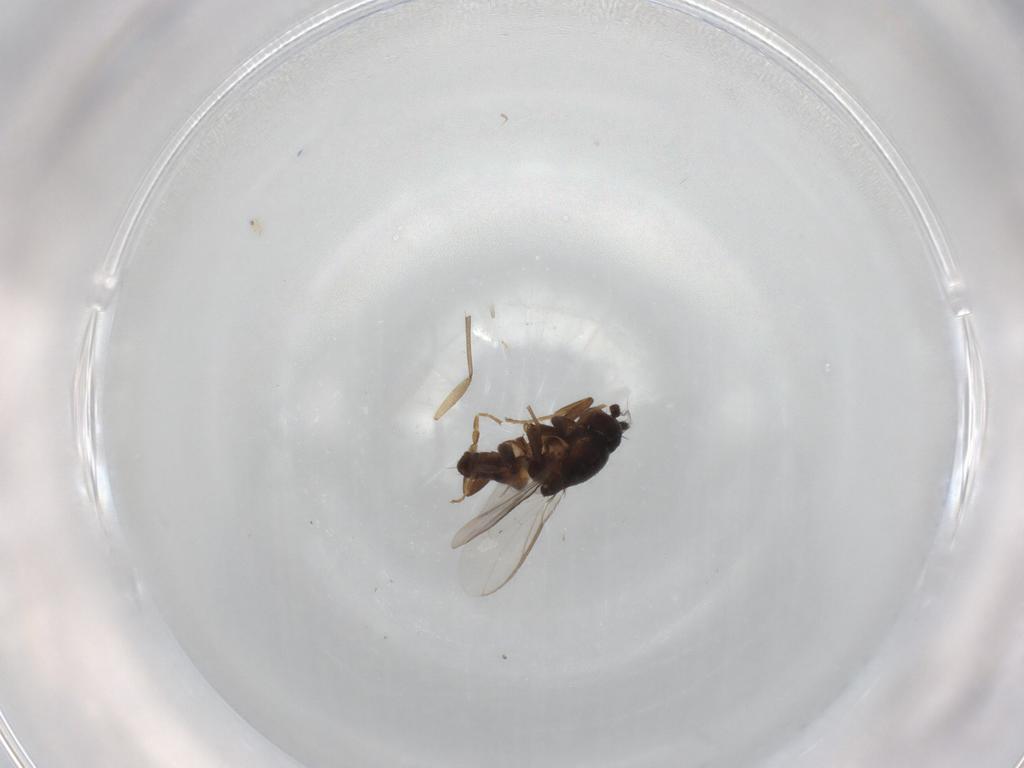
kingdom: Animalia
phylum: Arthropoda
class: Insecta
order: Diptera
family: Sphaeroceridae
